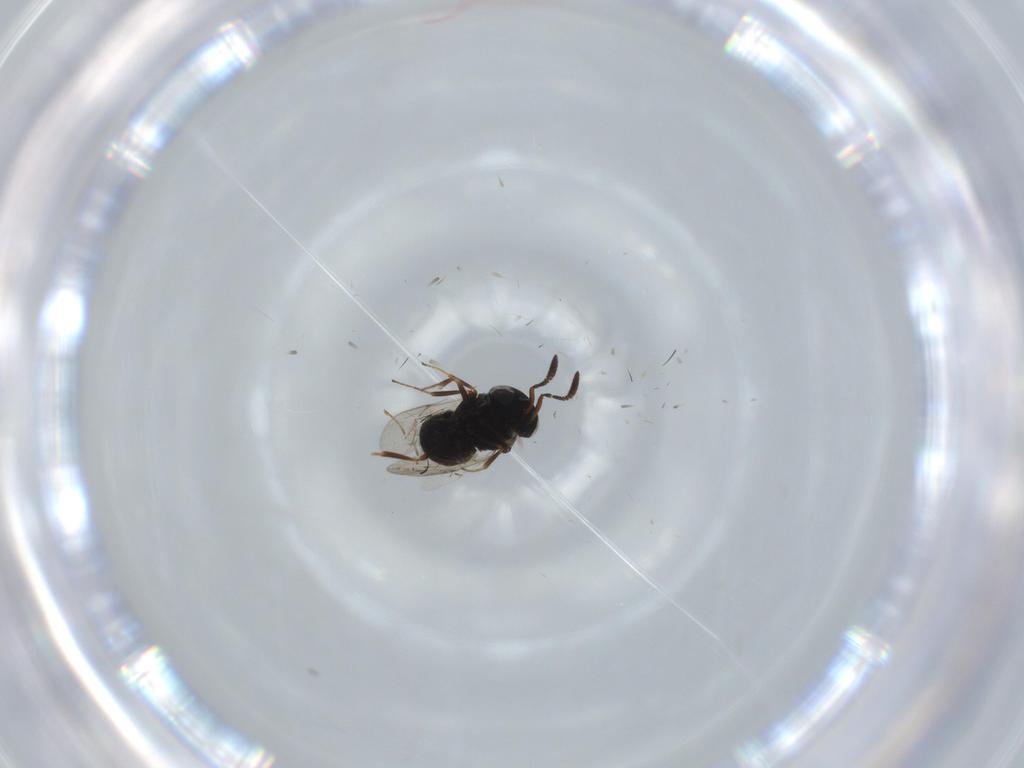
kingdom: Animalia
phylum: Arthropoda
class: Insecta
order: Hymenoptera
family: Scelionidae
